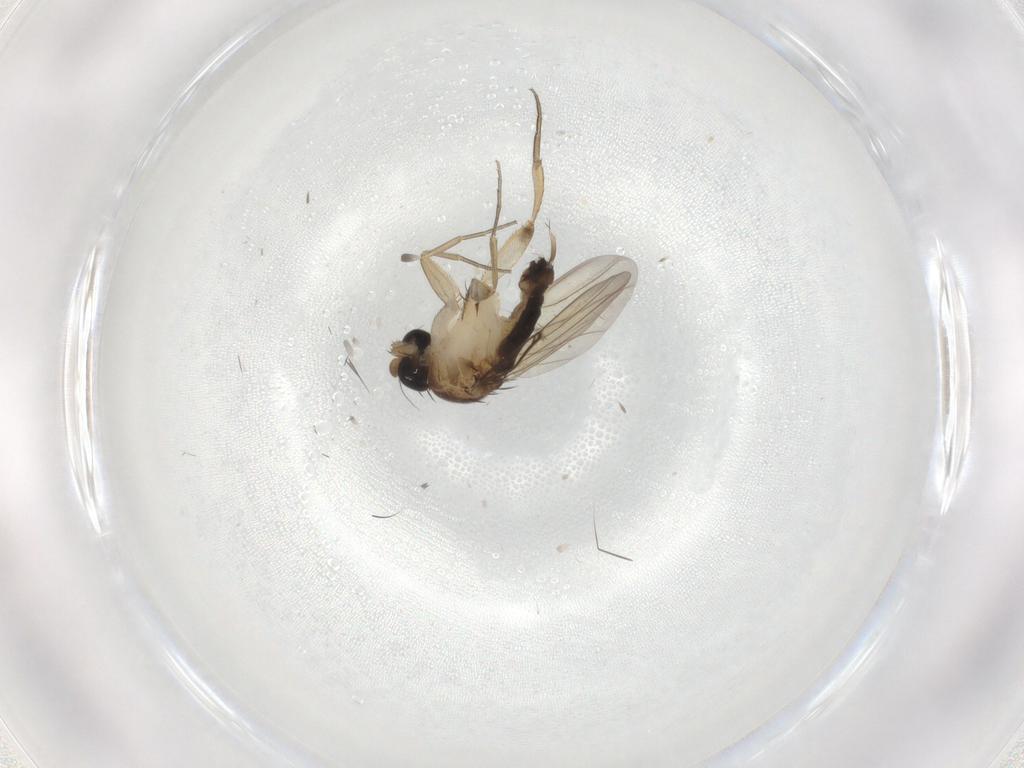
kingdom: Animalia
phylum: Arthropoda
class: Insecta
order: Diptera
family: Phoridae
